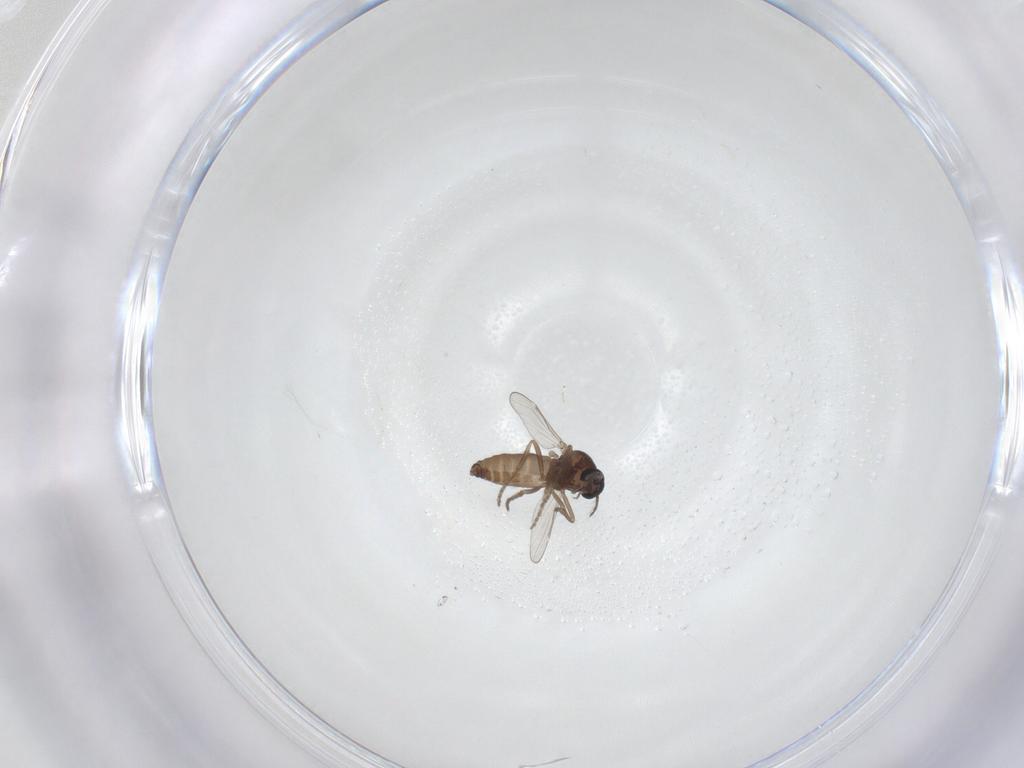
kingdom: Animalia
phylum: Arthropoda
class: Insecta
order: Diptera
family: Ceratopogonidae
